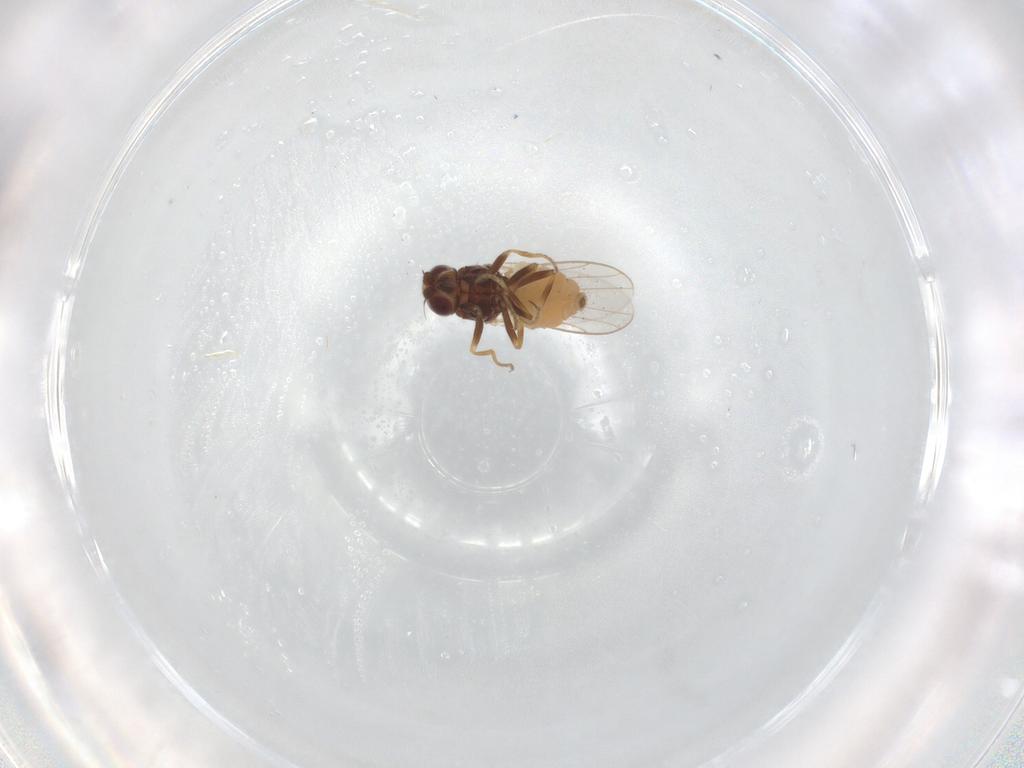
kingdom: Animalia
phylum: Arthropoda
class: Insecta
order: Diptera
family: Chloropidae
